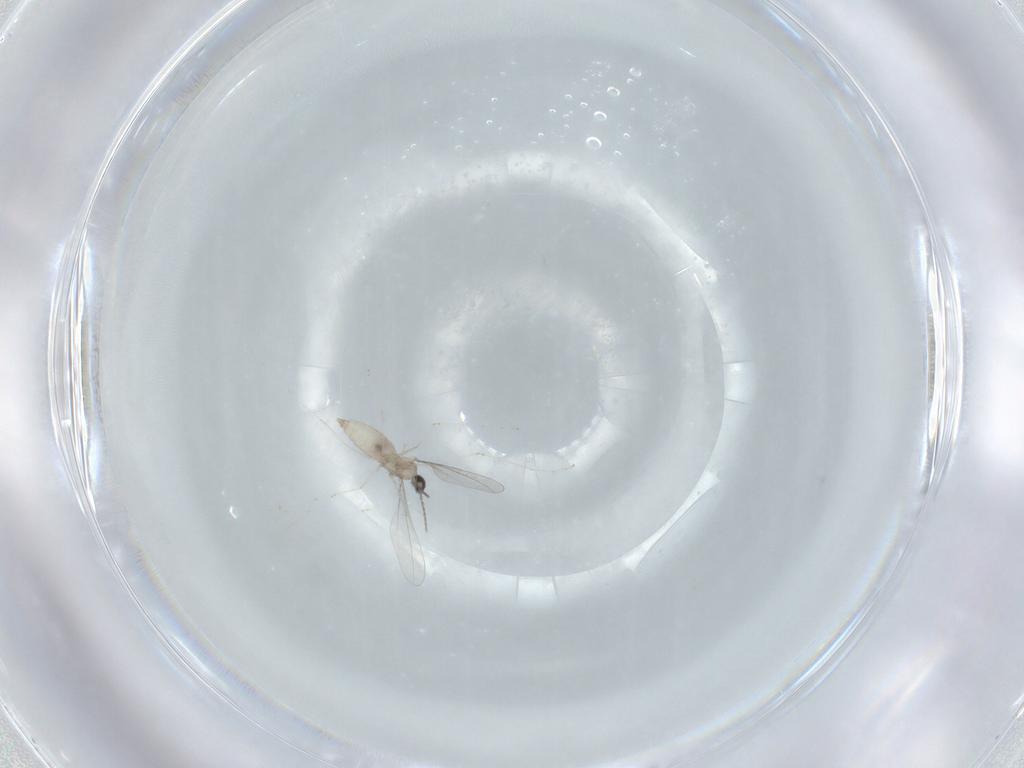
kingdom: Animalia
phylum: Arthropoda
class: Insecta
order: Diptera
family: Cecidomyiidae
